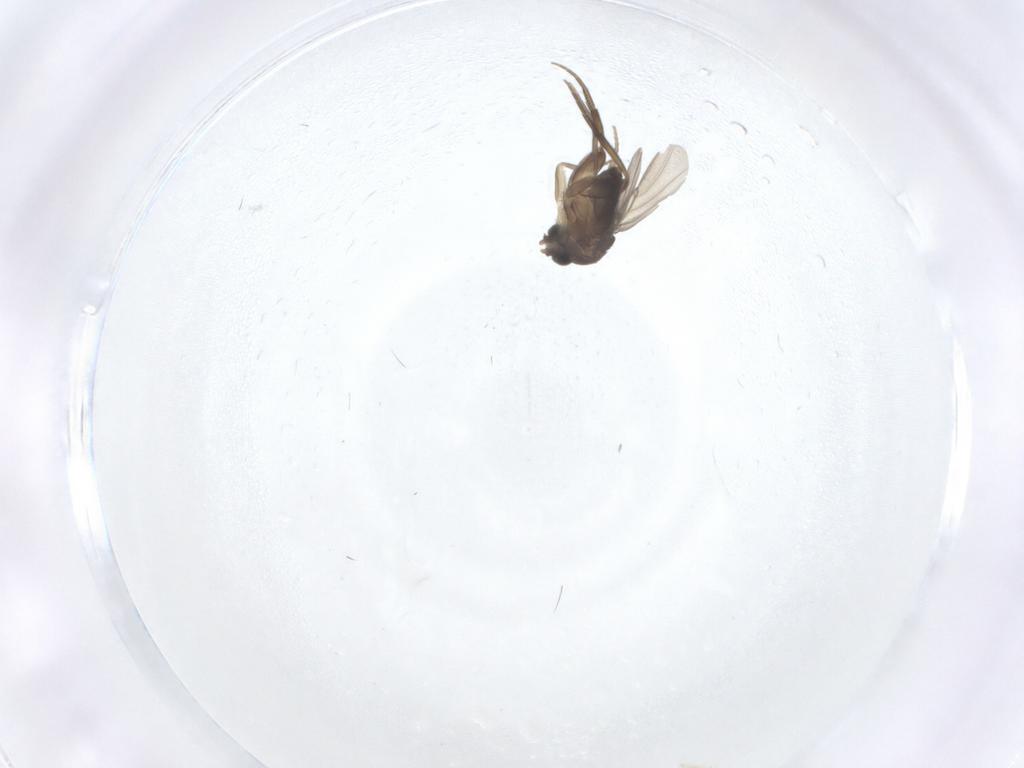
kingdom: Animalia
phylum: Arthropoda
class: Insecta
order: Diptera
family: Phoridae
